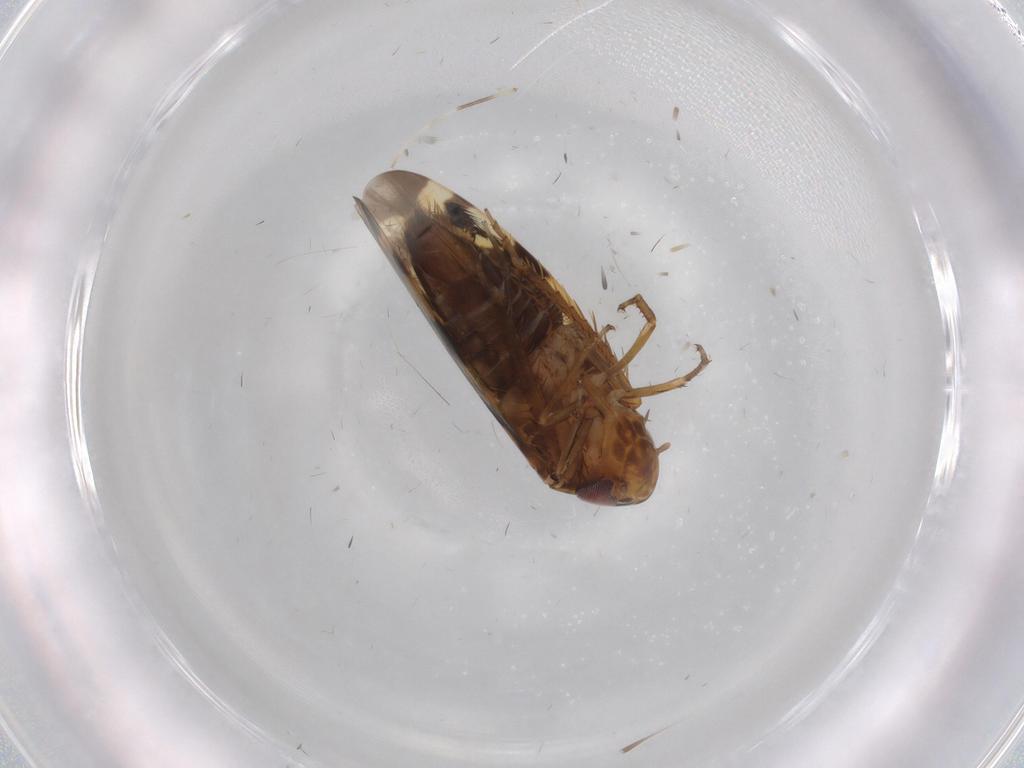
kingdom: Animalia
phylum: Arthropoda
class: Insecta
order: Hemiptera
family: Cicadellidae
